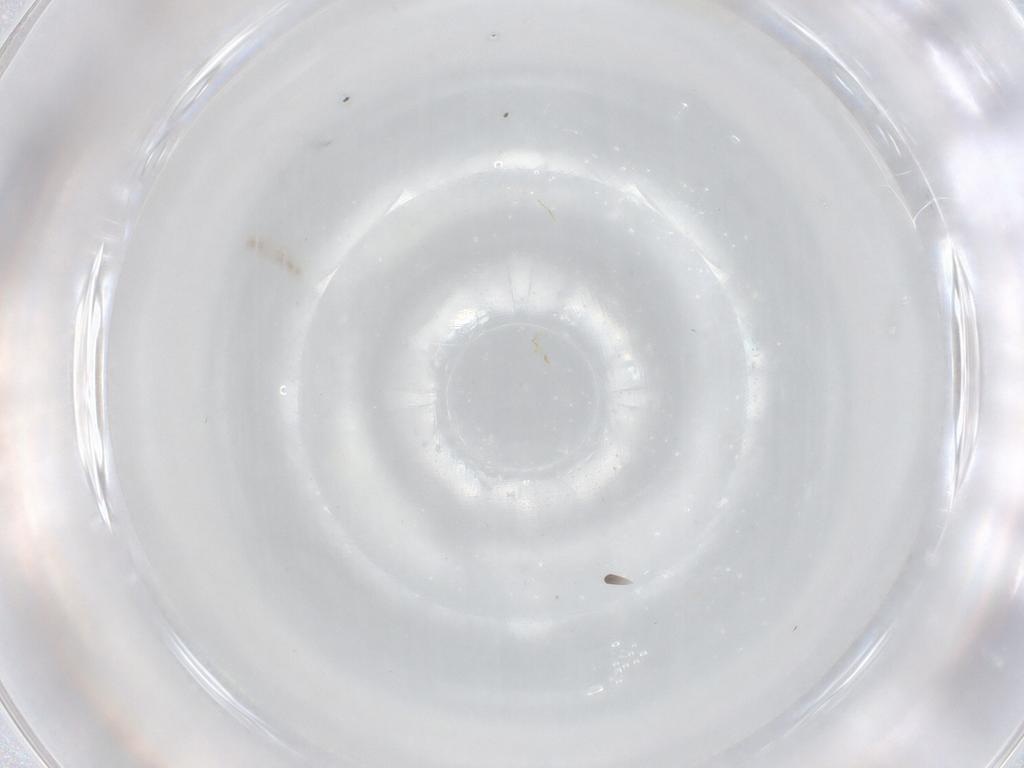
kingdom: Animalia
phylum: Arthropoda
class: Insecta
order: Diptera
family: Cecidomyiidae
